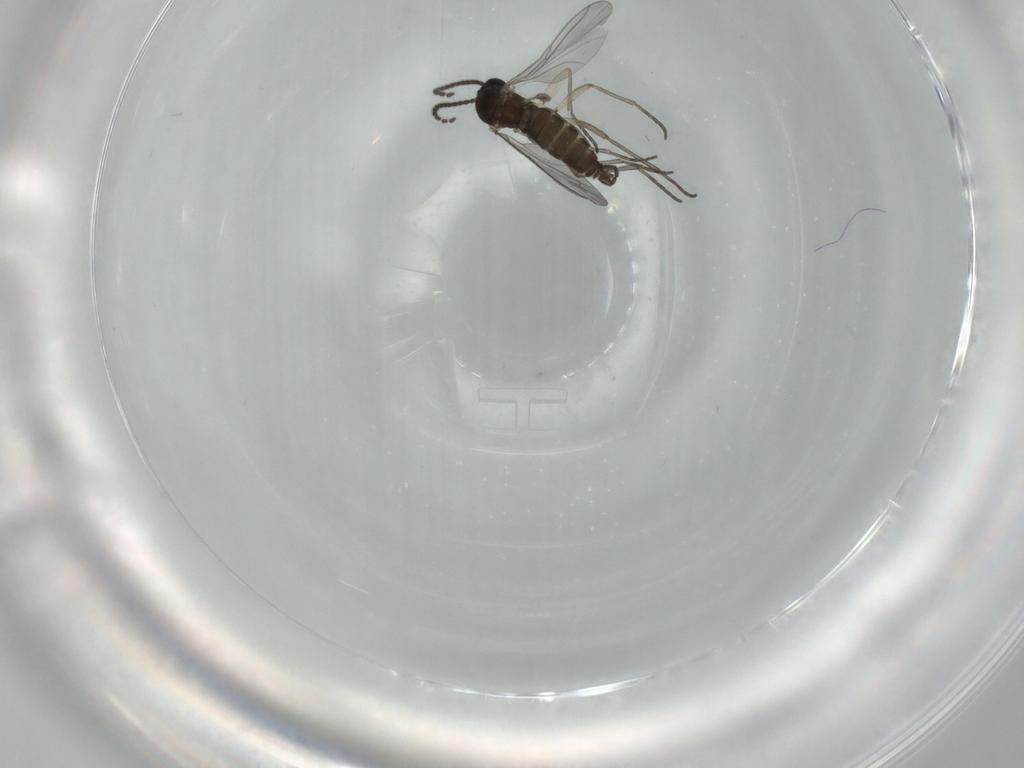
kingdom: Animalia
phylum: Arthropoda
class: Insecta
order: Diptera
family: Sciaridae
